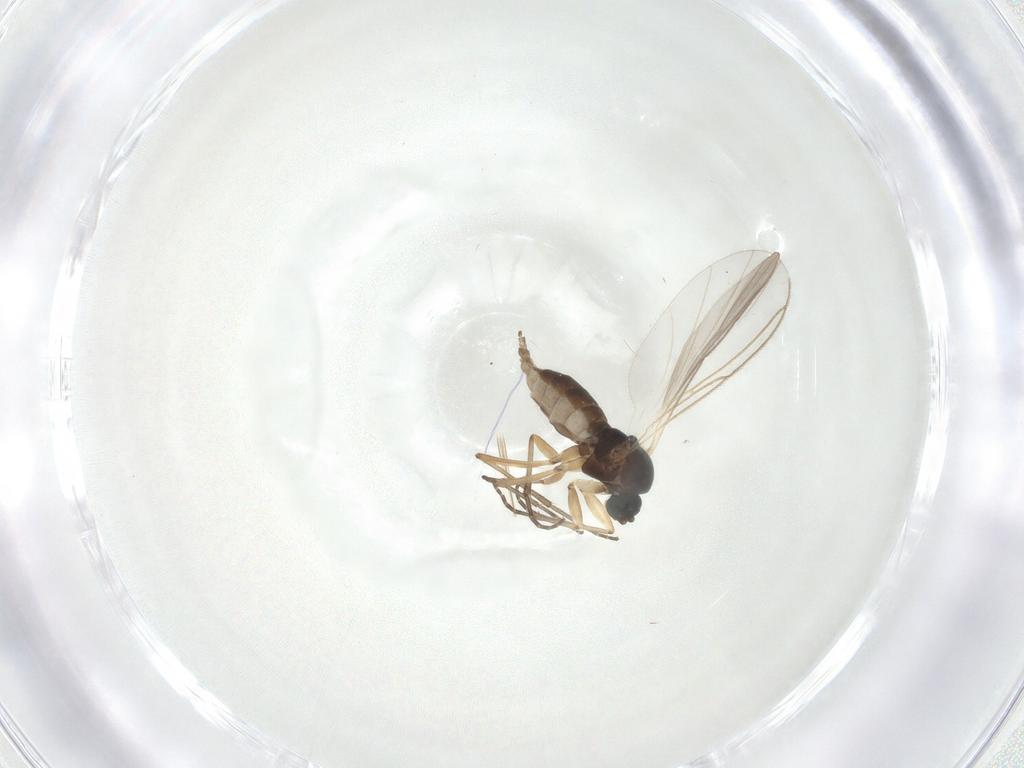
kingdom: Animalia
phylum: Arthropoda
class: Insecta
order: Diptera
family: Sciaridae
